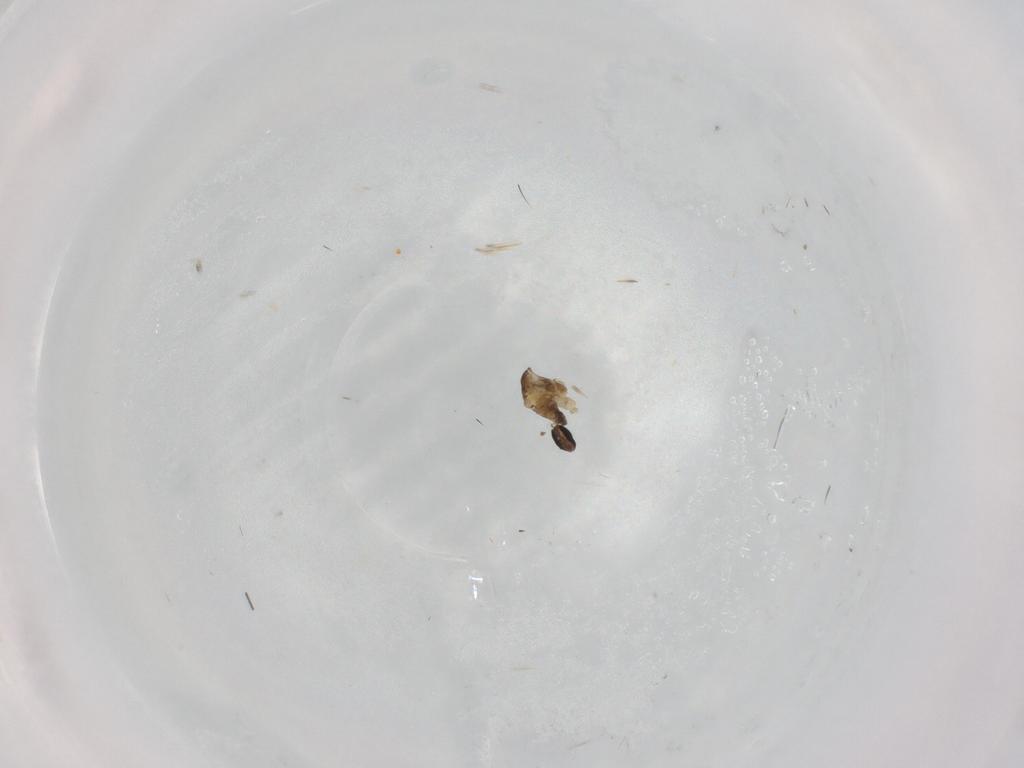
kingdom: Animalia
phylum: Arthropoda
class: Insecta
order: Diptera
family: Cecidomyiidae
